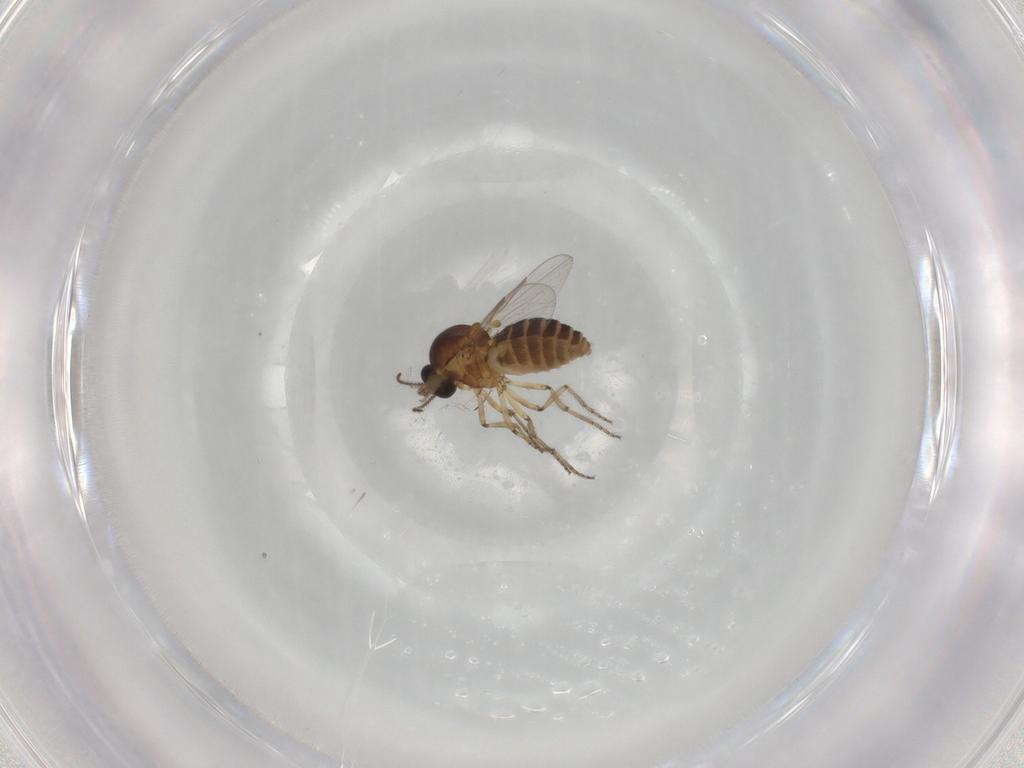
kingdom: Animalia
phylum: Arthropoda
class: Insecta
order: Diptera
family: Ceratopogonidae
